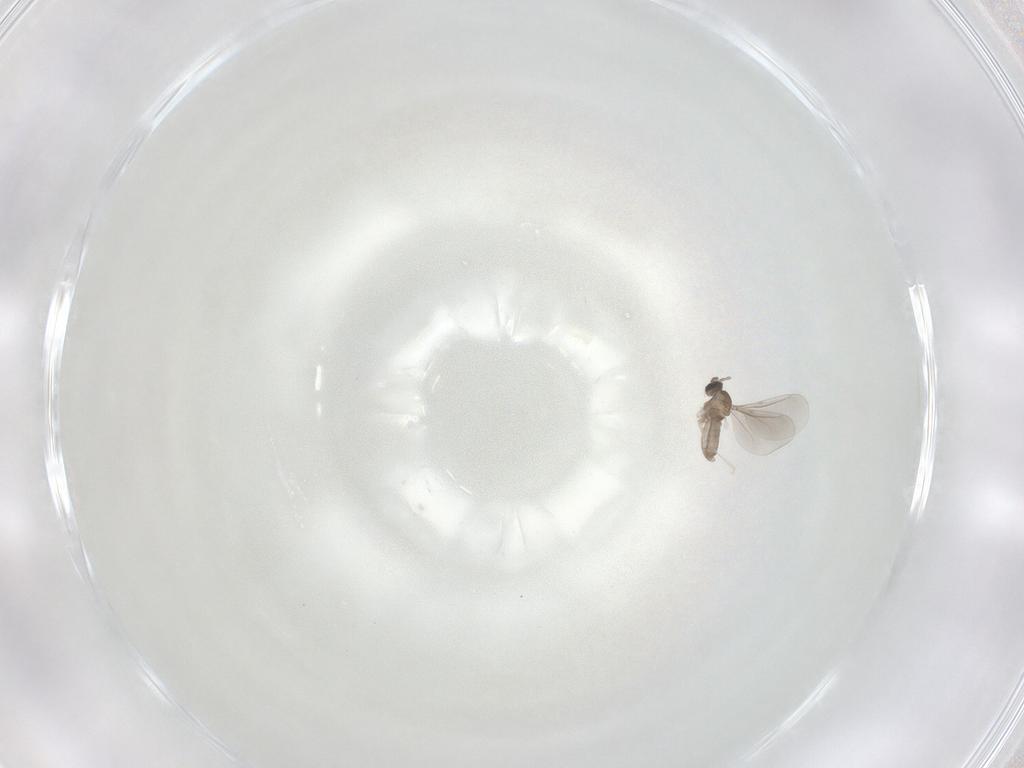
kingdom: Animalia
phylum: Arthropoda
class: Insecta
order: Diptera
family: Cecidomyiidae
